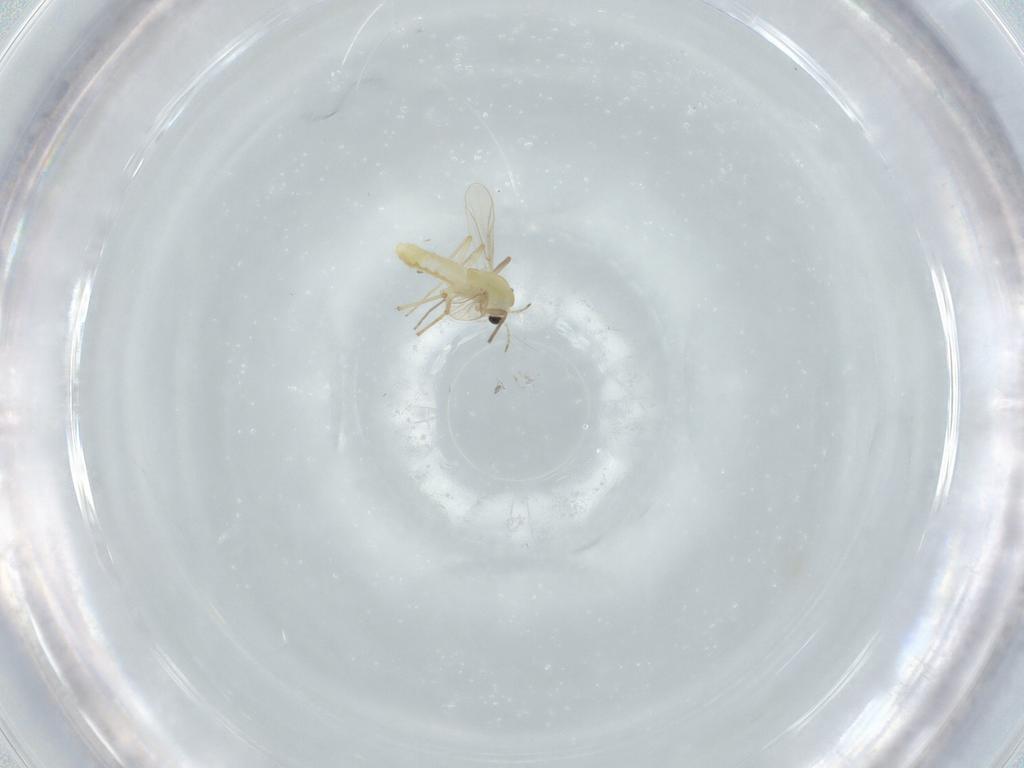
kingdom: Animalia
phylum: Arthropoda
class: Insecta
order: Diptera
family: Chironomidae
